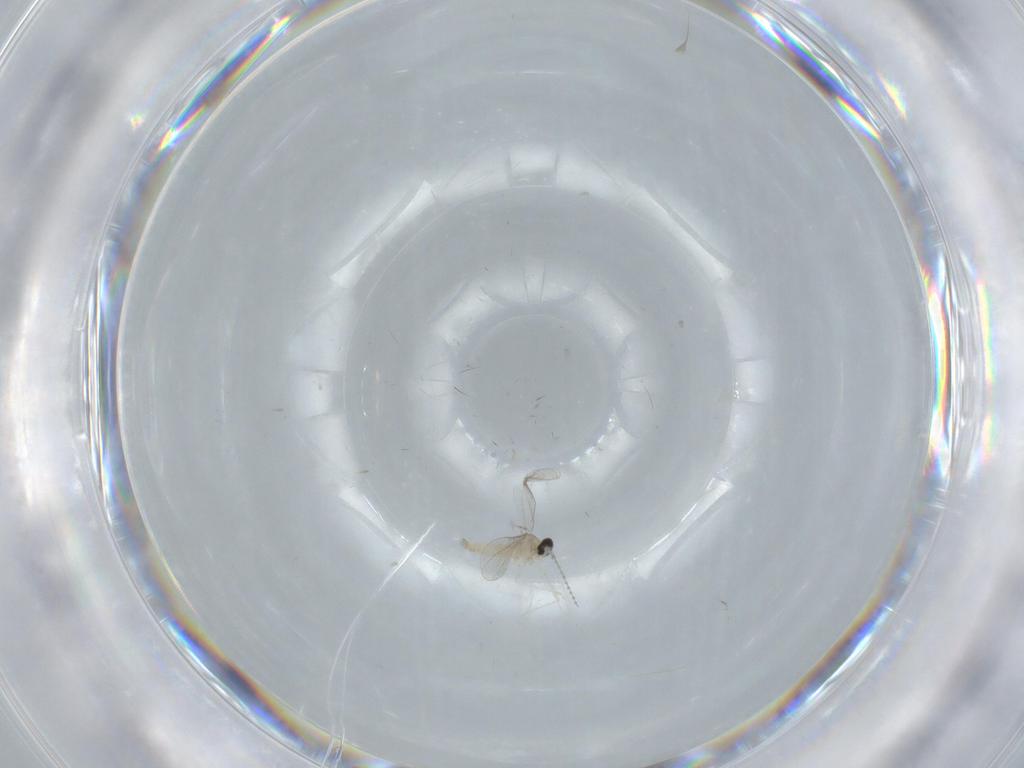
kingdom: Animalia
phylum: Arthropoda
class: Insecta
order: Diptera
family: Cecidomyiidae
